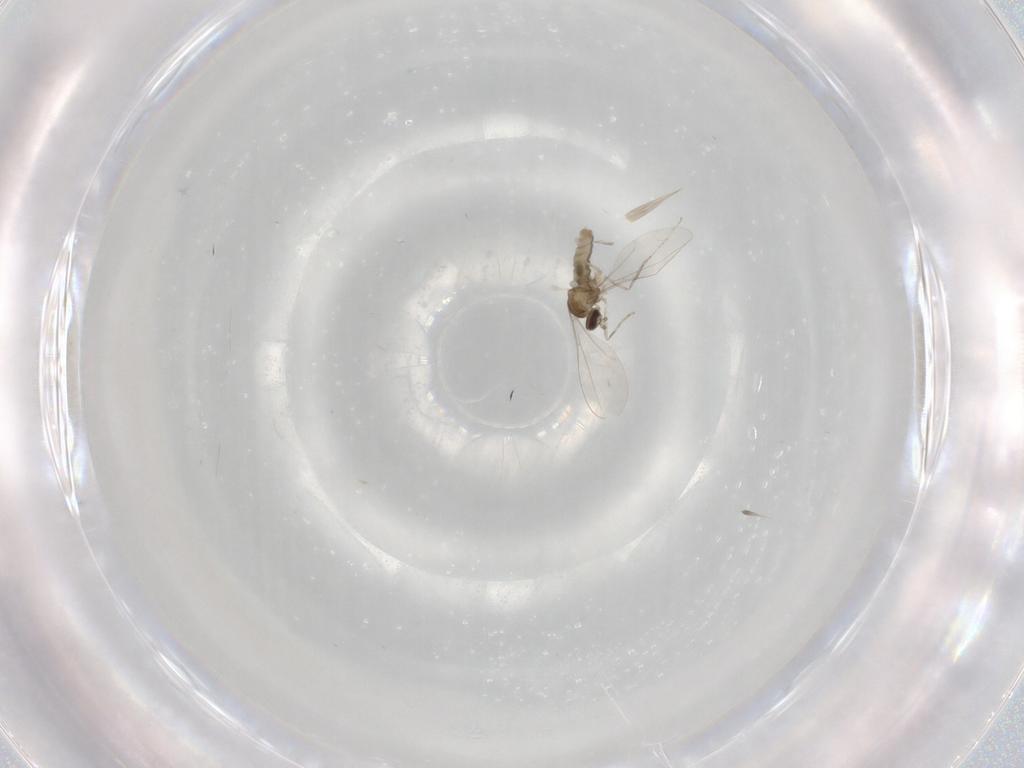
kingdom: Animalia
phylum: Arthropoda
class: Insecta
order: Diptera
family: Cecidomyiidae
